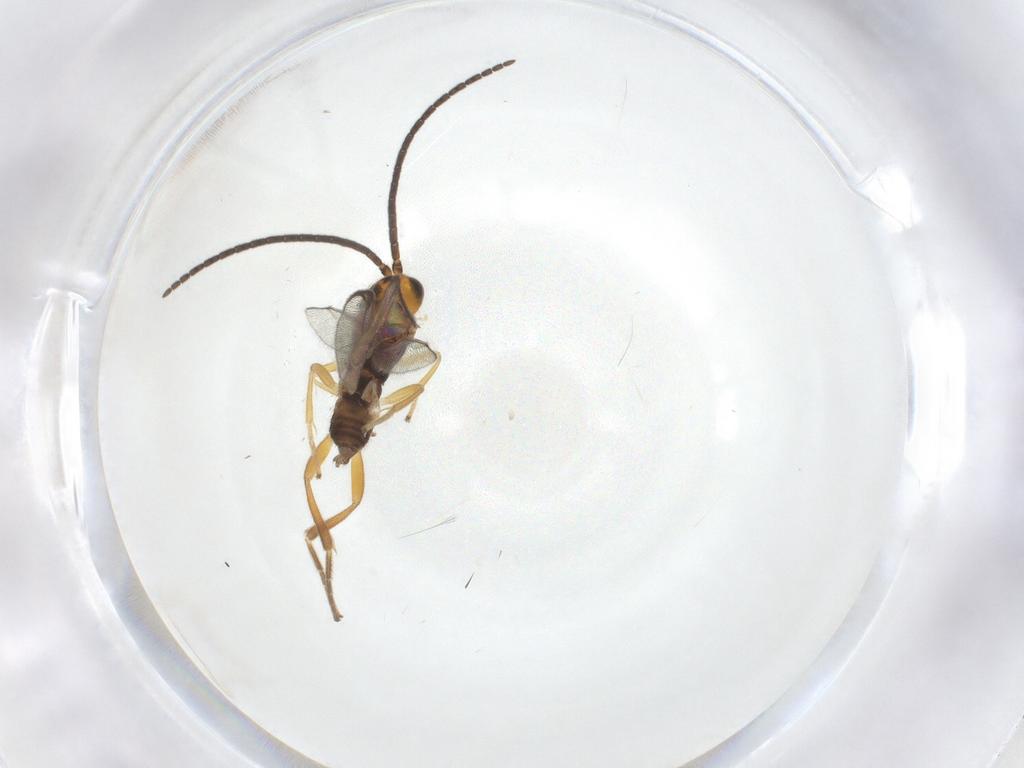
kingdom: Animalia
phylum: Arthropoda
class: Insecta
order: Hymenoptera
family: Braconidae
